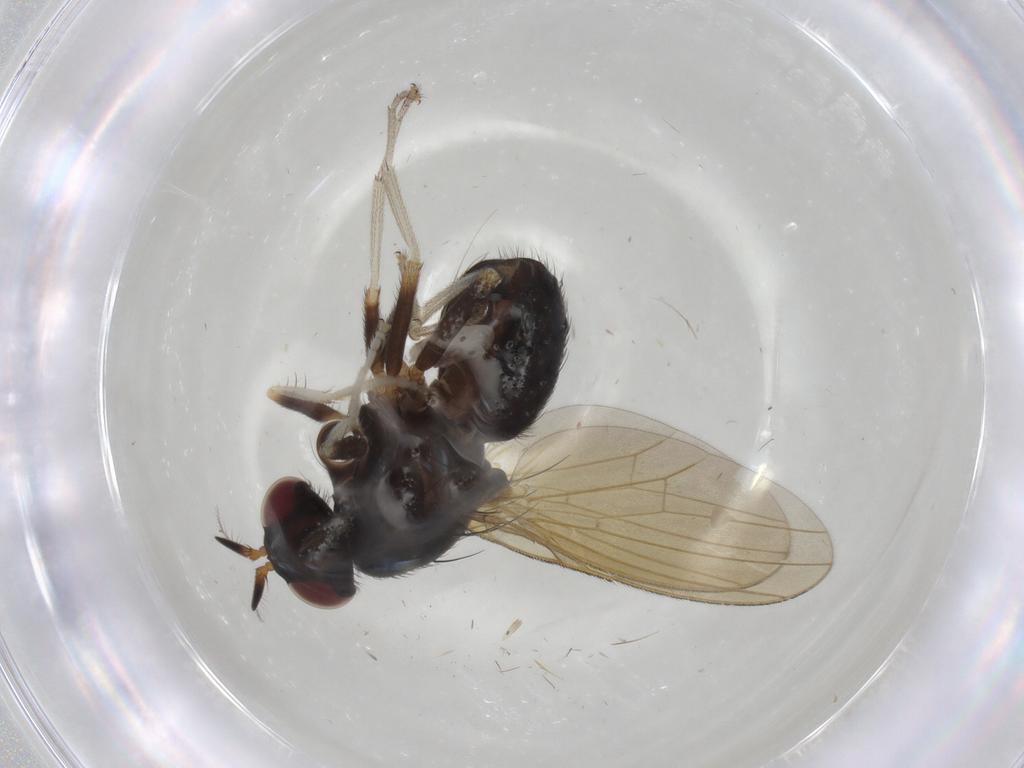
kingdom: Animalia
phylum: Arthropoda
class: Insecta
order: Diptera
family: Lauxaniidae
